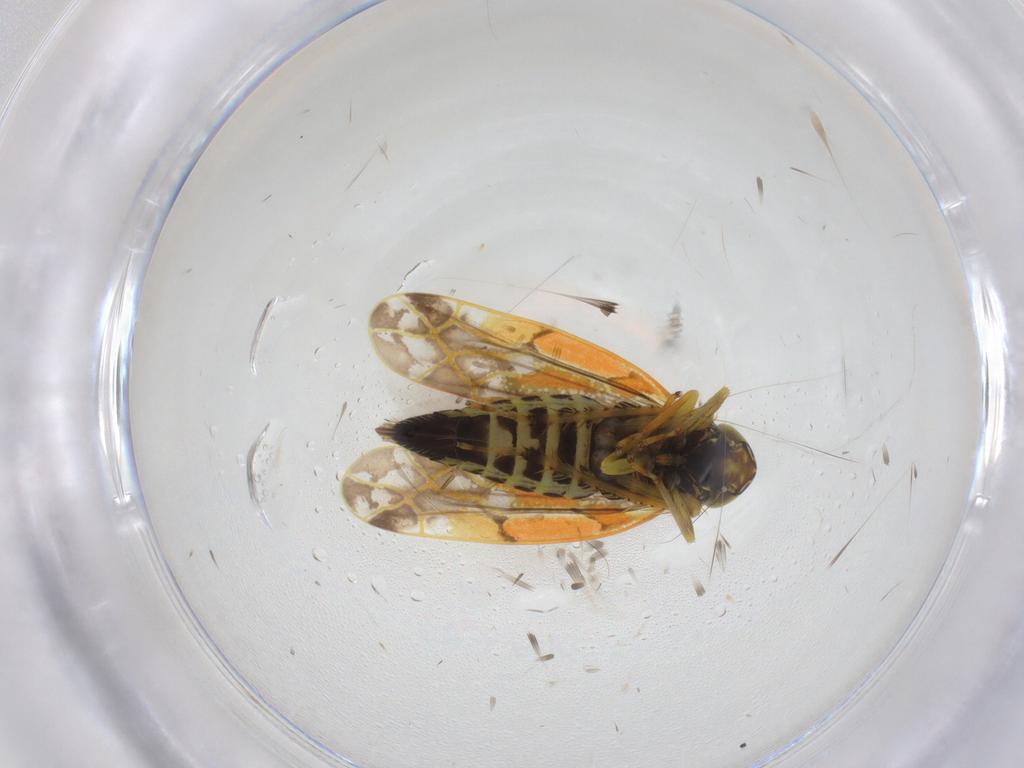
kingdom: Animalia
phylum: Arthropoda
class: Insecta
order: Hemiptera
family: Cicadellidae
